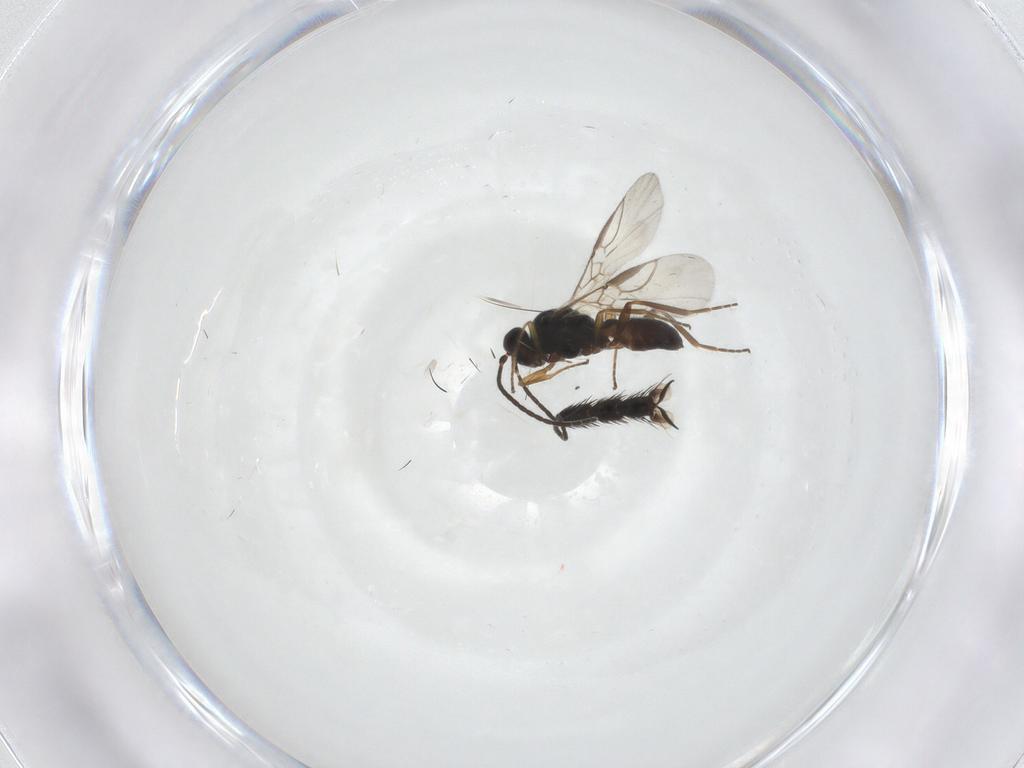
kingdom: Animalia
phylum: Arthropoda
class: Insecta
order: Hymenoptera
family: Braconidae
